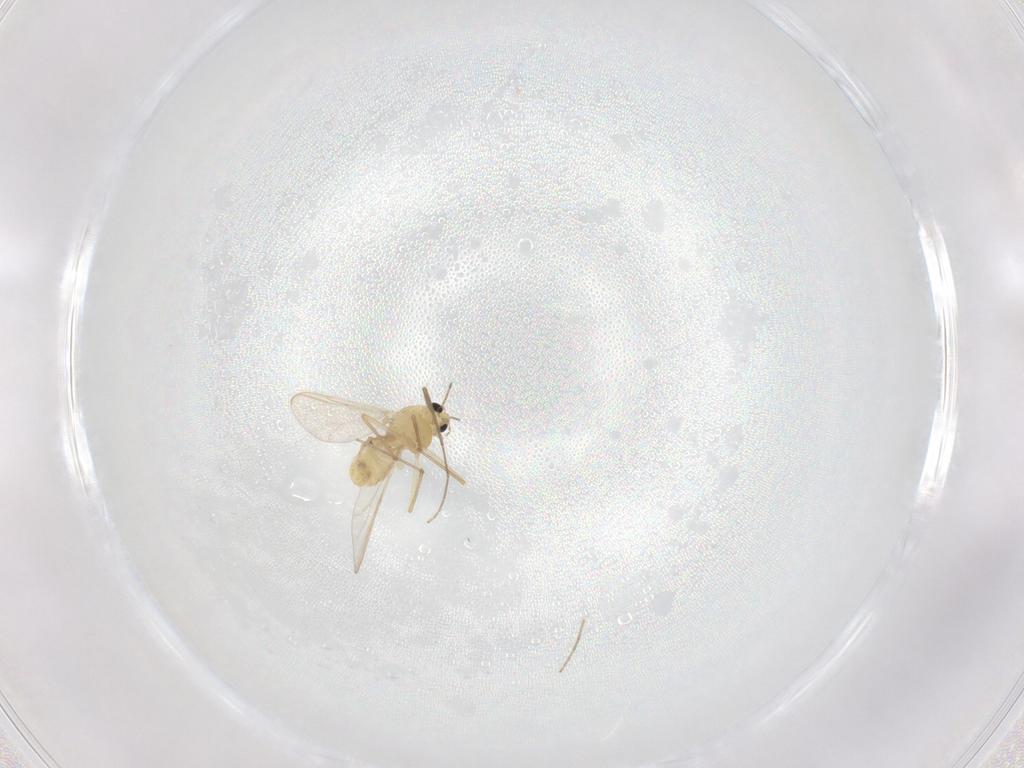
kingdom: Animalia
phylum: Arthropoda
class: Insecta
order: Diptera
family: Chironomidae
